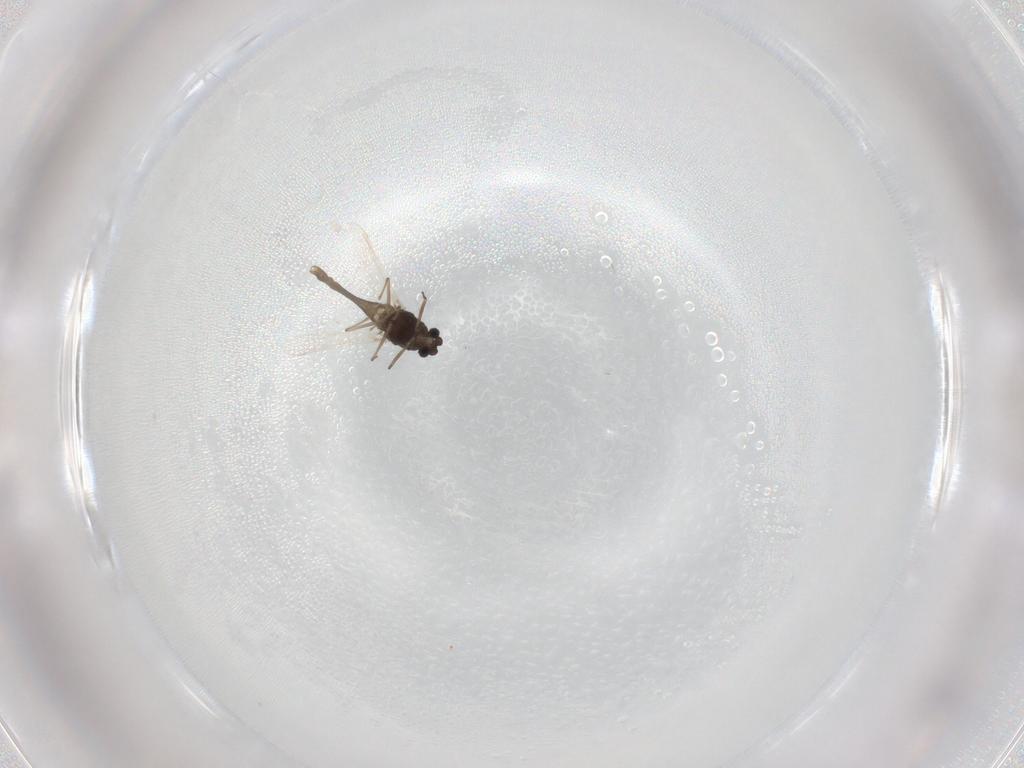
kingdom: Animalia
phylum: Arthropoda
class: Insecta
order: Diptera
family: Chironomidae
